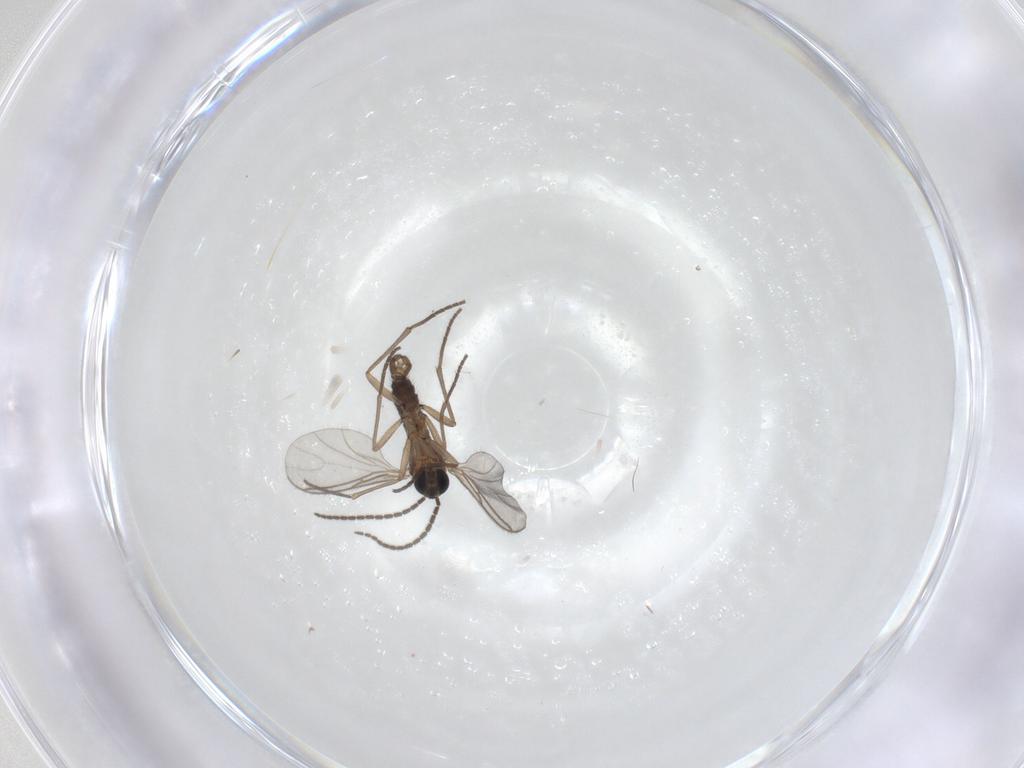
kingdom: Animalia
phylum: Arthropoda
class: Insecta
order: Diptera
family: Sciaridae
